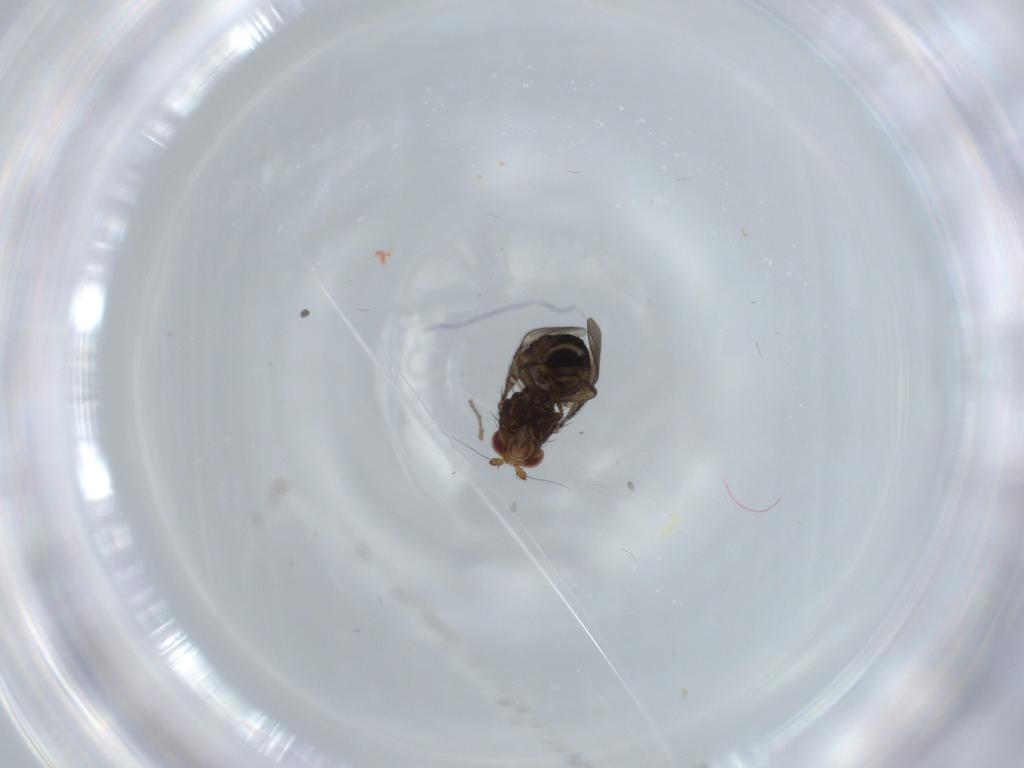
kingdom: Animalia
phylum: Arthropoda
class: Insecta
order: Diptera
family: Sphaeroceridae
